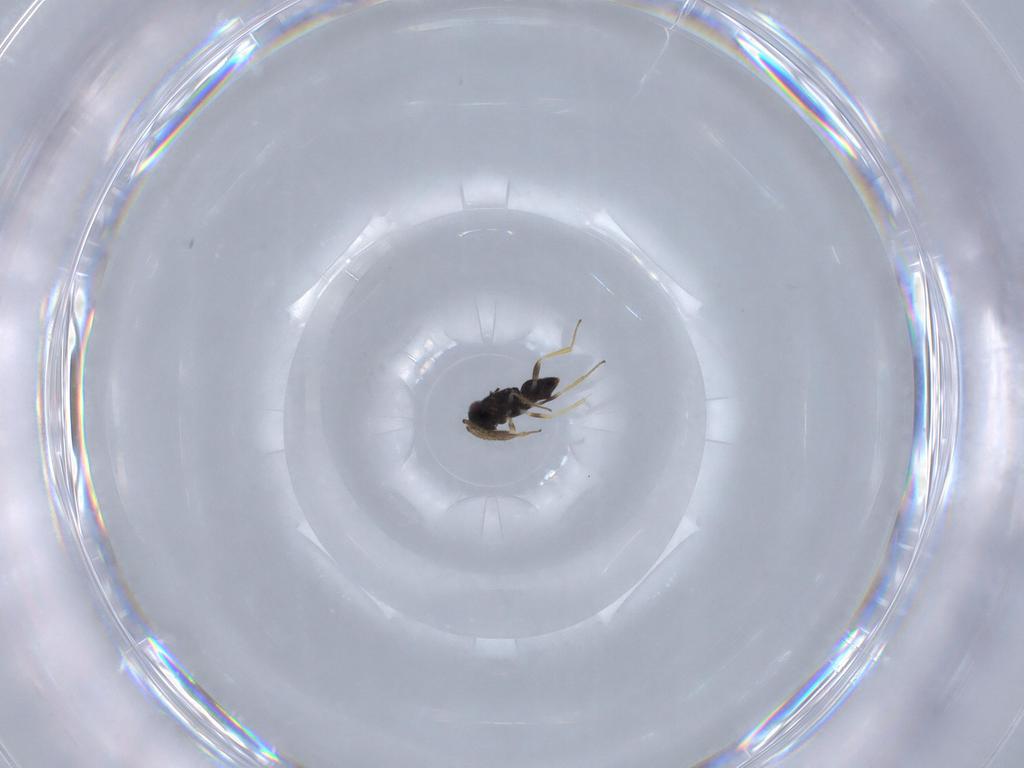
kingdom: Animalia
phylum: Arthropoda
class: Insecta
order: Hymenoptera
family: Encyrtidae
